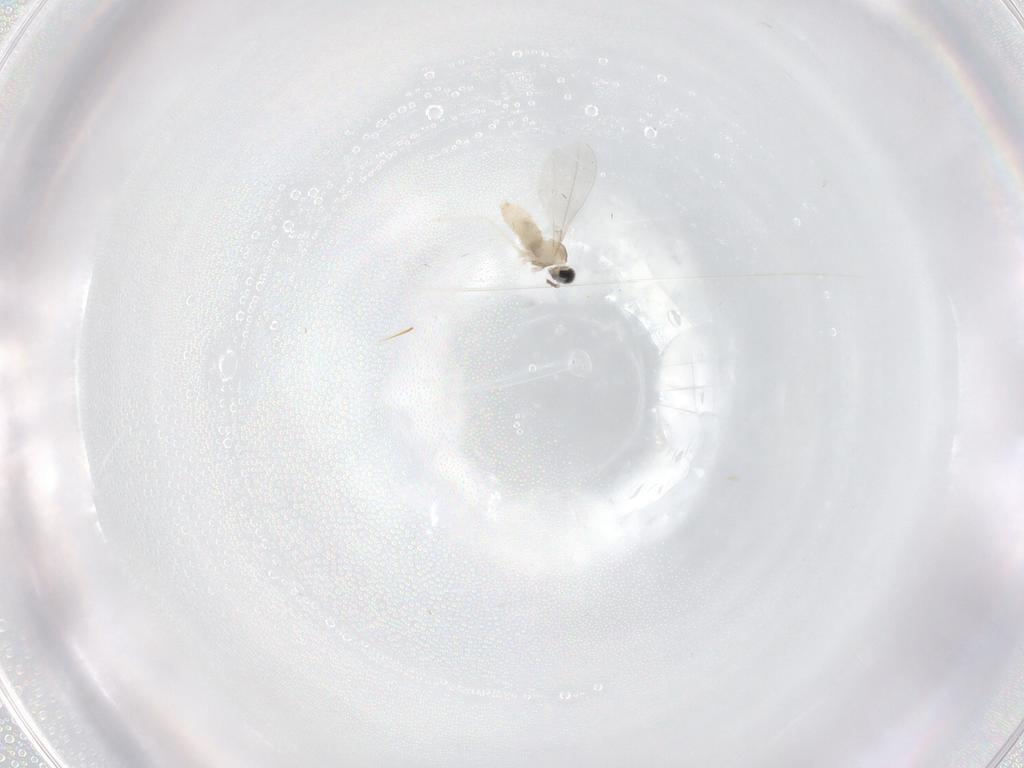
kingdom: Animalia
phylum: Arthropoda
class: Insecta
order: Diptera
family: Cecidomyiidae
